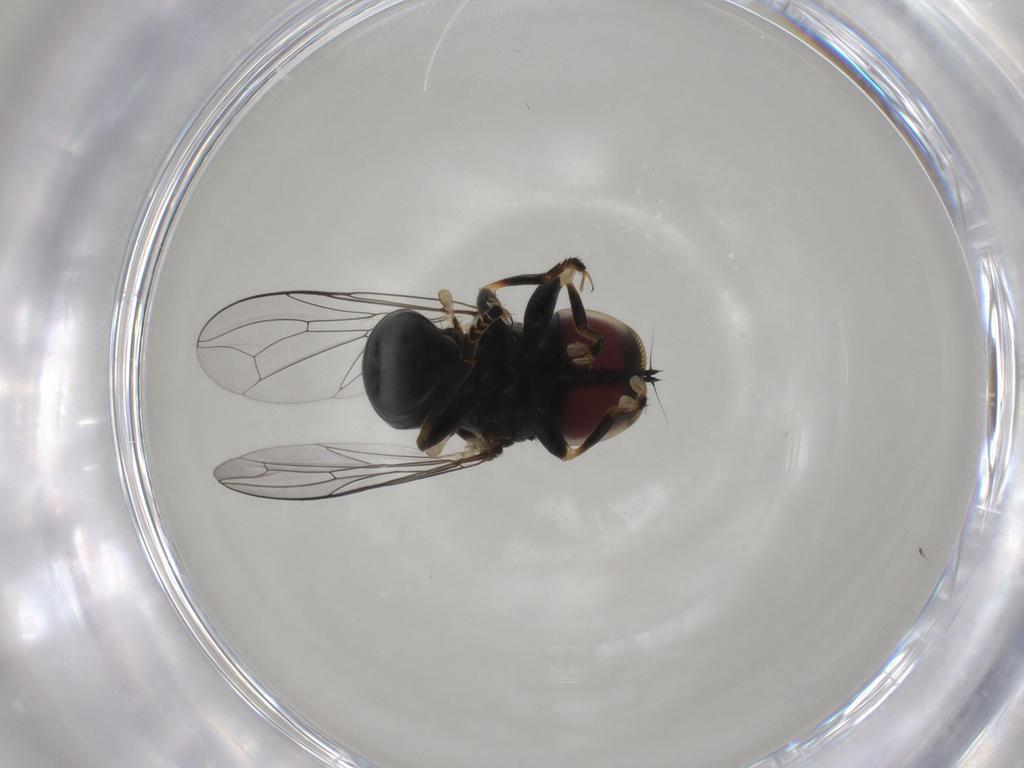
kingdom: Animalia
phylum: Arthropoda
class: Insecta
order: Diptera
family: Pipunculidae
